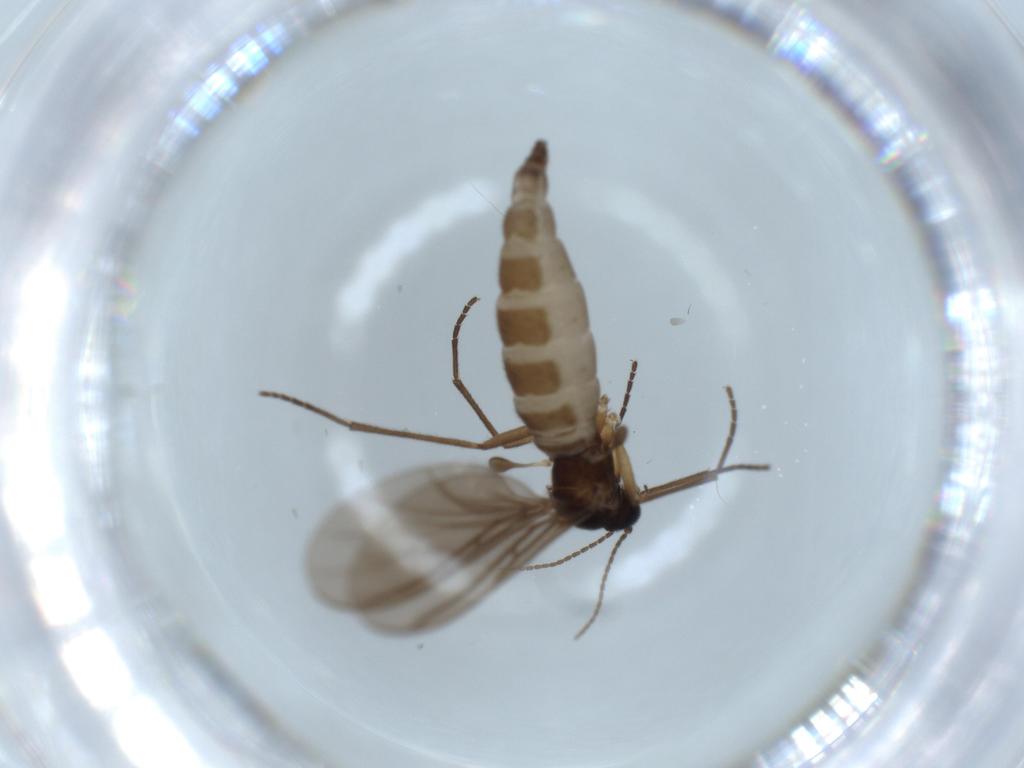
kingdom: Animalia
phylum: Arthropoda
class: Insecta
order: Diptera
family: Sciaridae
